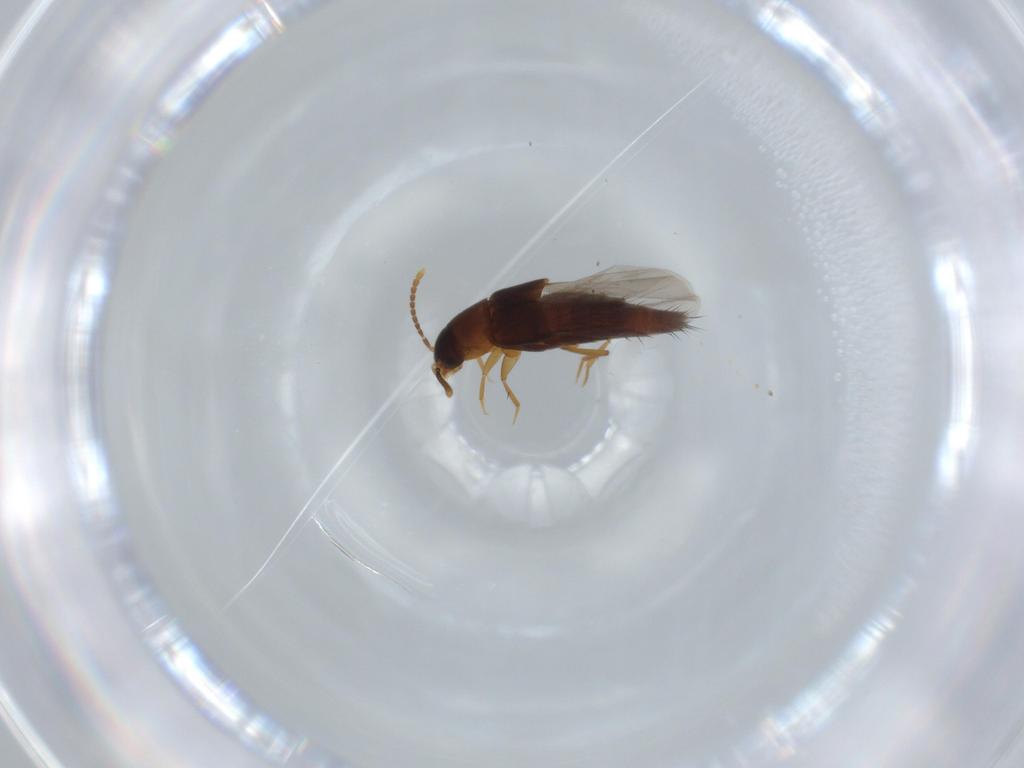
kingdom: Animalia
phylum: Arthropoda
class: Insecta
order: Coleoptera
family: Staphylinidae
